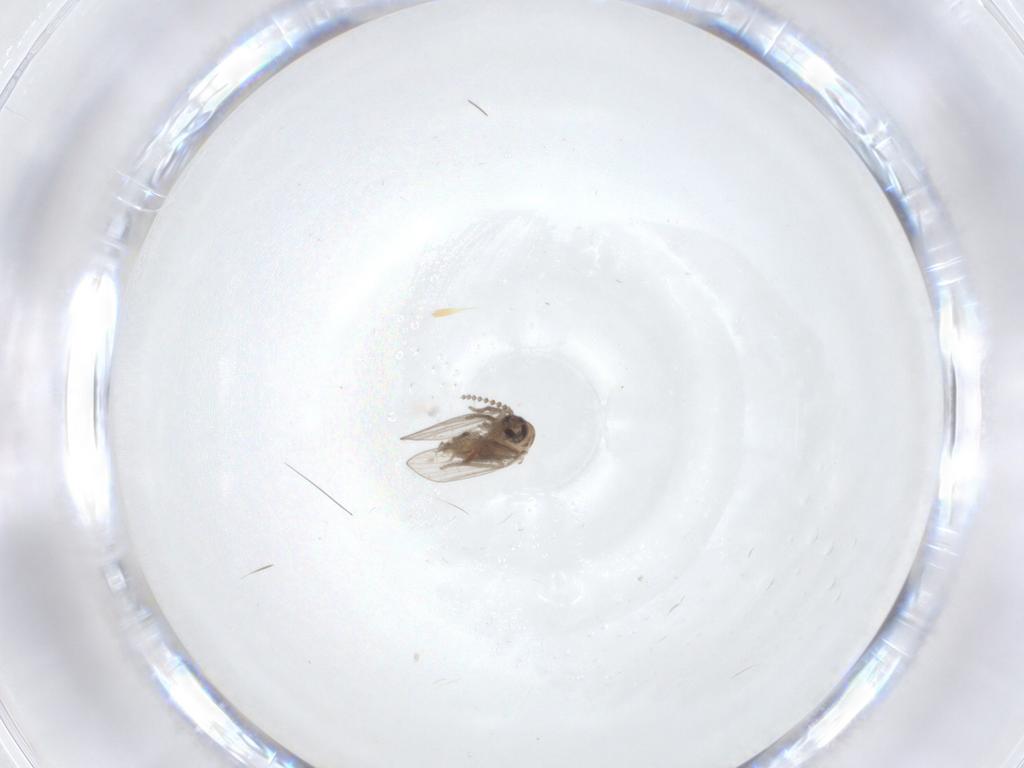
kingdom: Animalia
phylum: Arthropoda
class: Insecta
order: Diptera
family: Psychodidae
